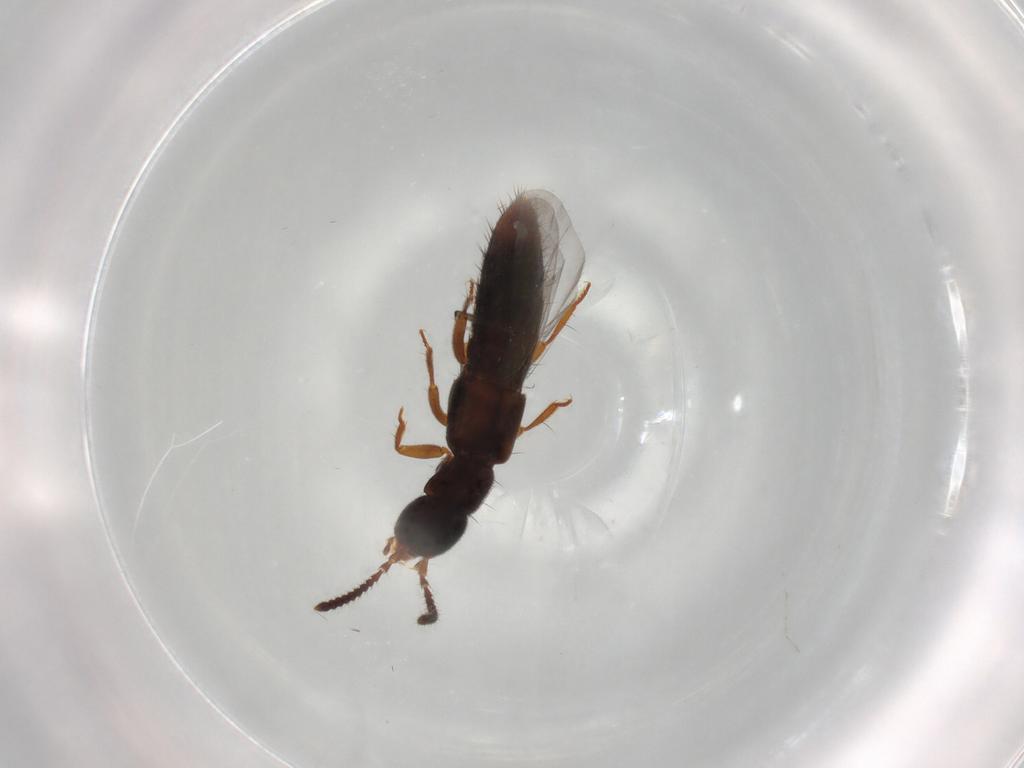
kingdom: Animalia
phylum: Arthropoda
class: Insecta
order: Coleoptera
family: Staphylinidae
